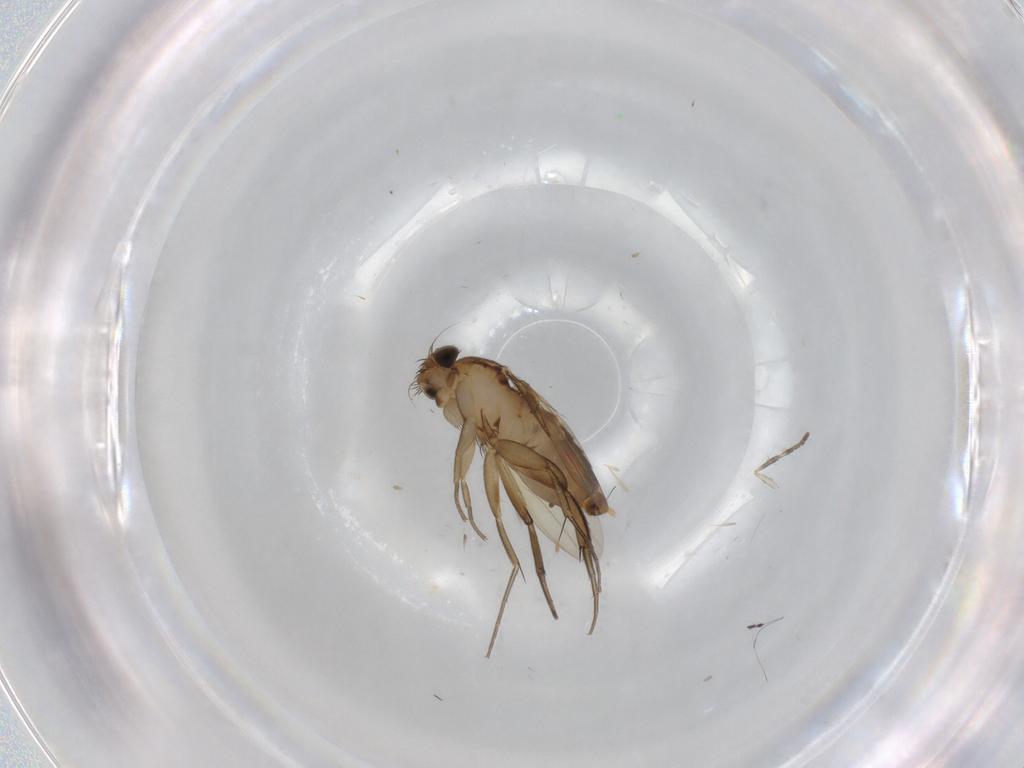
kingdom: Animalia
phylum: Arthropoda
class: Insecta
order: Diptera
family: Phoridae
